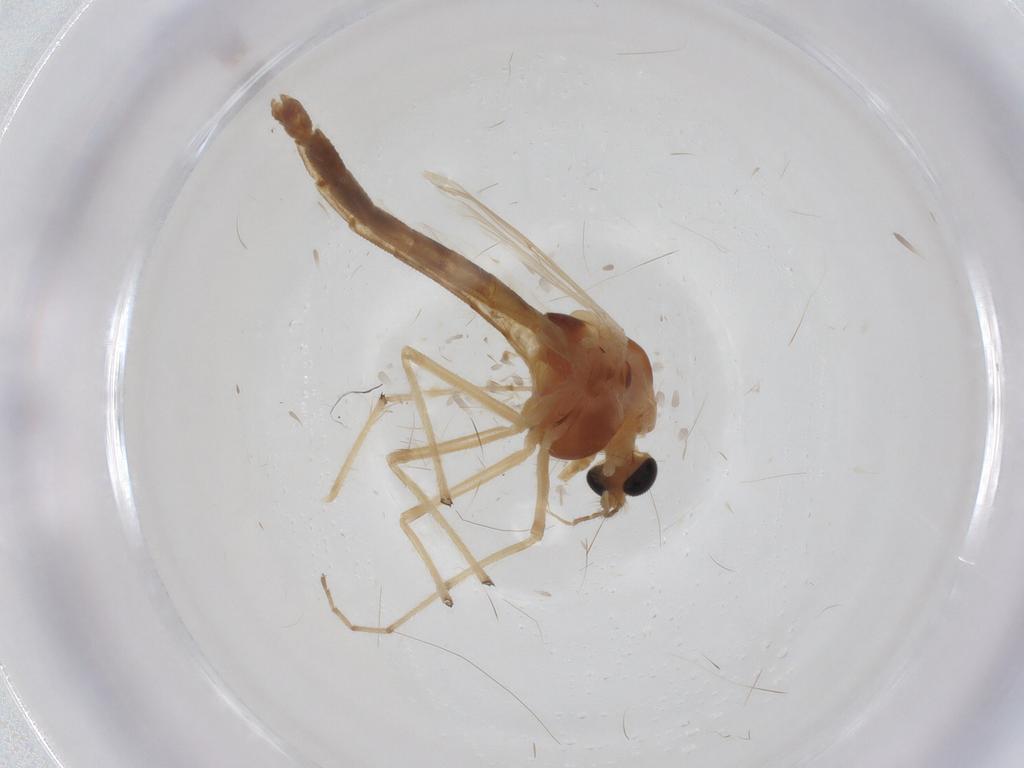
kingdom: Animalia
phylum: Arthropoda
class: Insecta
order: Diptera
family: Chironomidae
